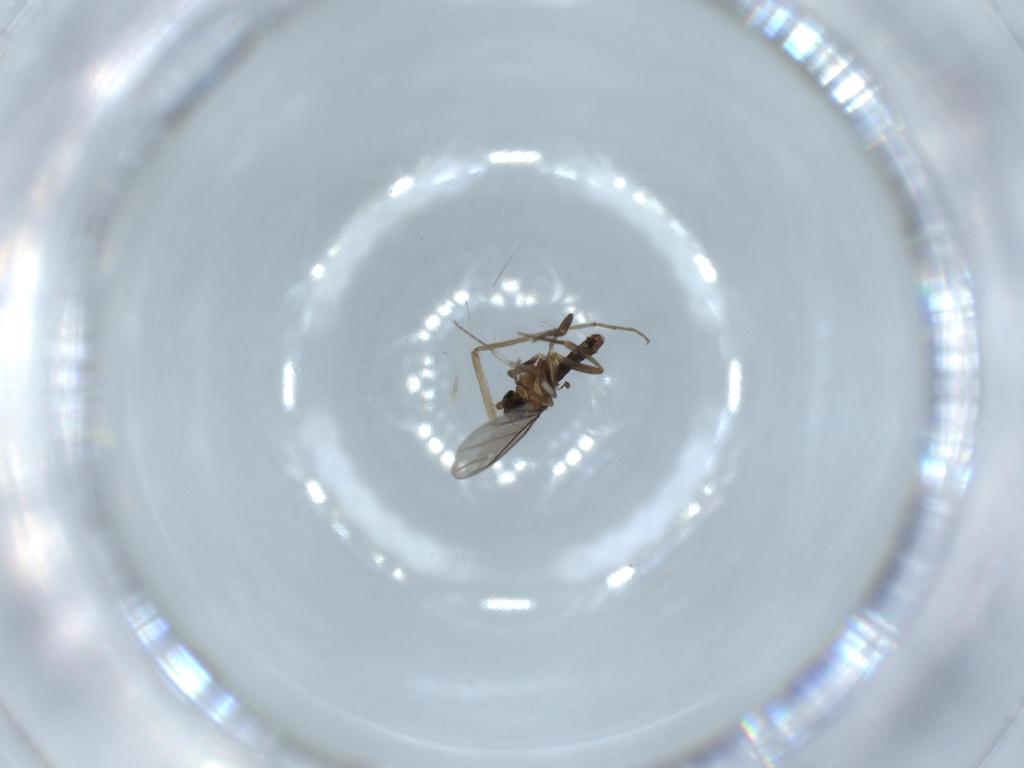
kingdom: Animalia
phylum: Arthropoda
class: Insecta
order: Diptera
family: Phoridae
